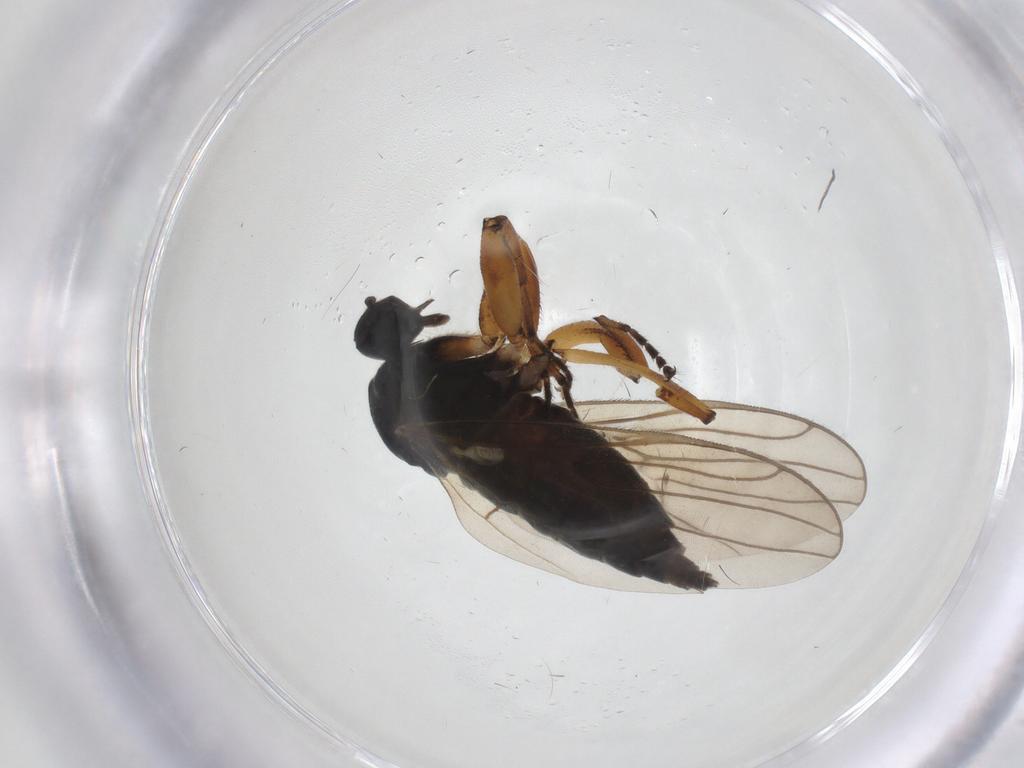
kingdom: Animalia
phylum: Arthropoda
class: Insecta
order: Diptera
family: Hybotidae
